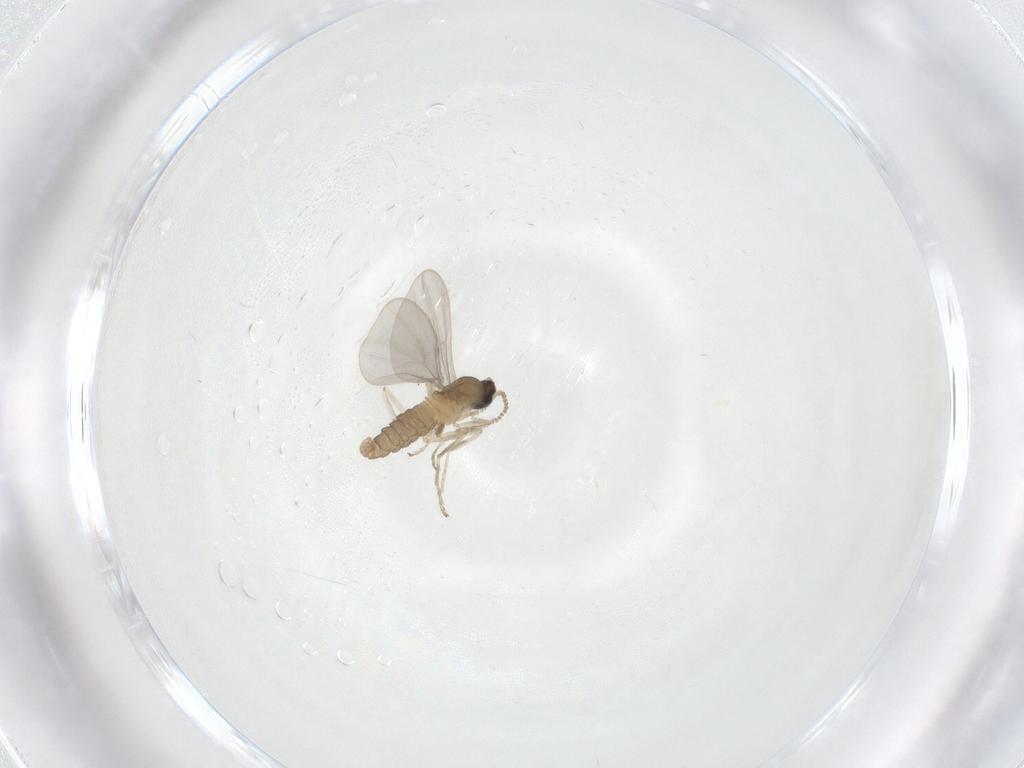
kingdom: Animalia
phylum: Arthropoda
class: Insecta
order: Diptera
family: Cecidomyiidae
